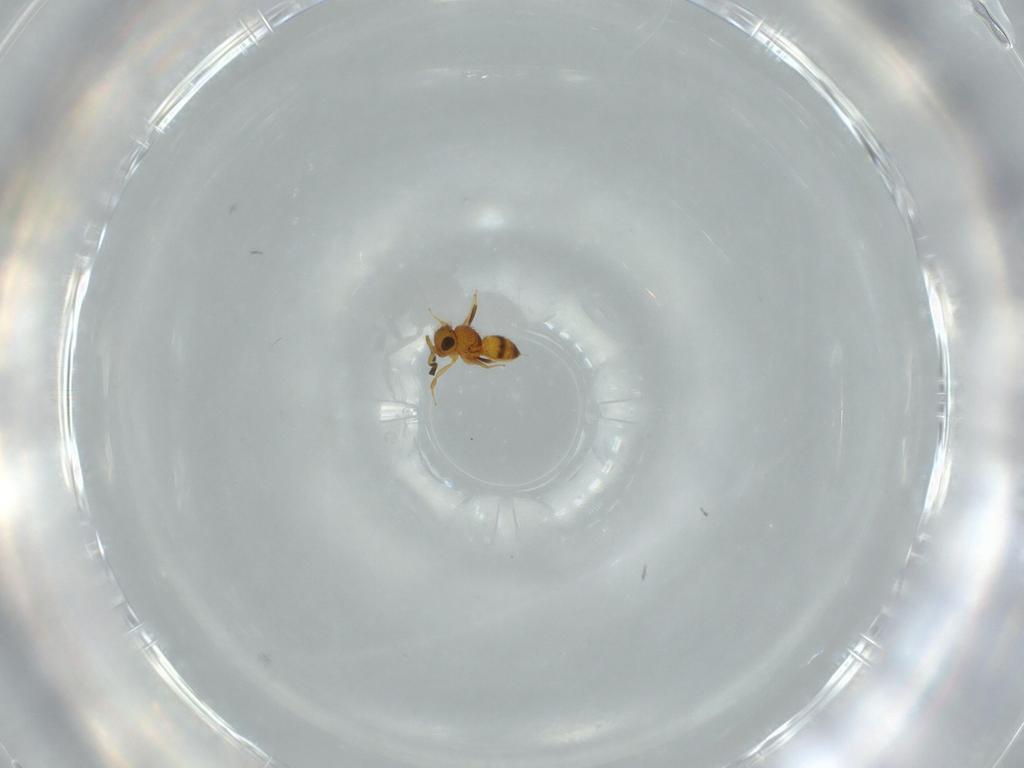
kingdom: Animalia
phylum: Arthropoda
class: Insecta
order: Hymenoptera
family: Scelionidae
